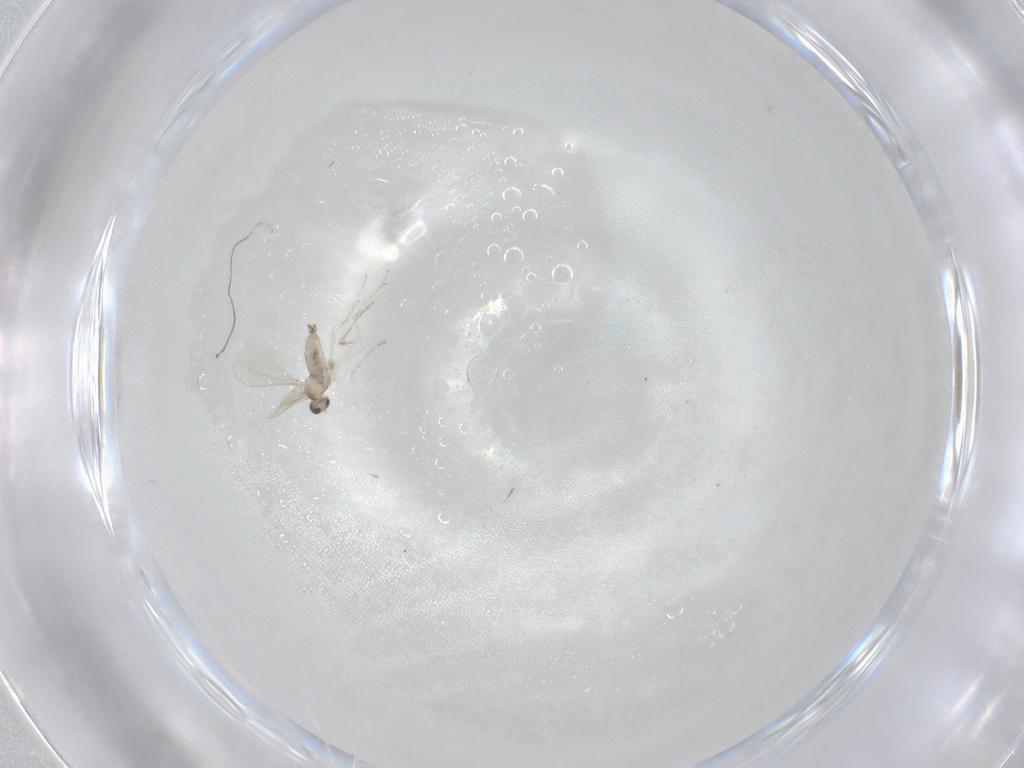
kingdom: Animalia
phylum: Arthropoda
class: Insecta
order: Diptera
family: Cecidomyiidae
